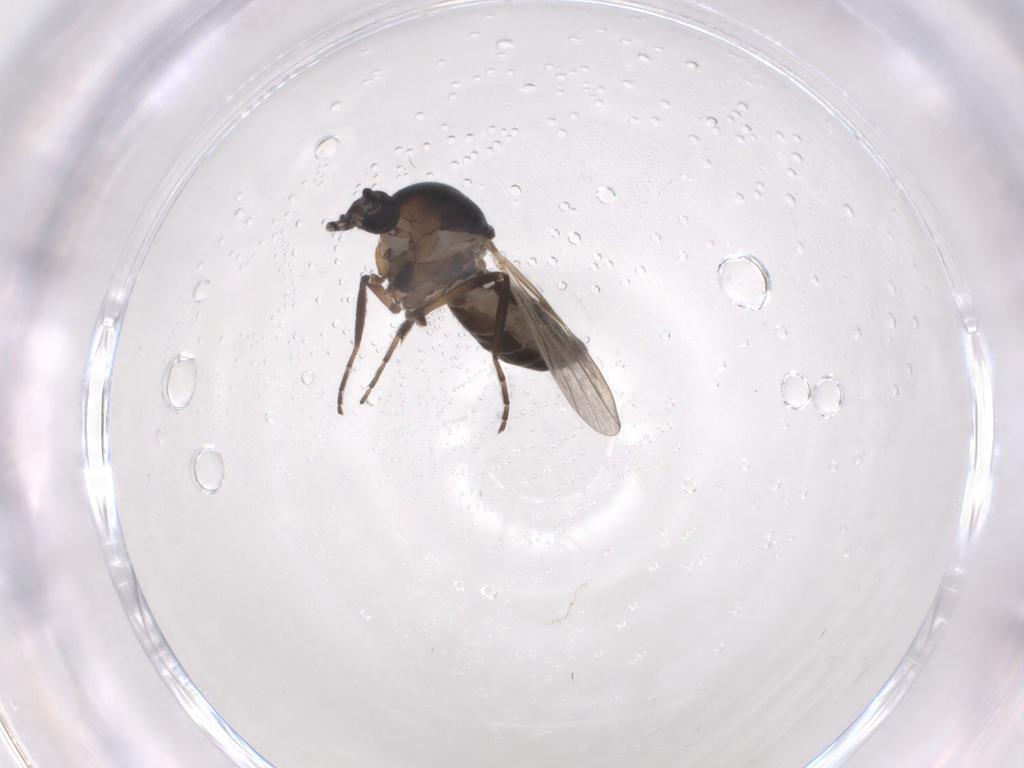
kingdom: Animalia
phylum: Arthropoda
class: Insecta
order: Diptera
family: Ceratopogonidae
